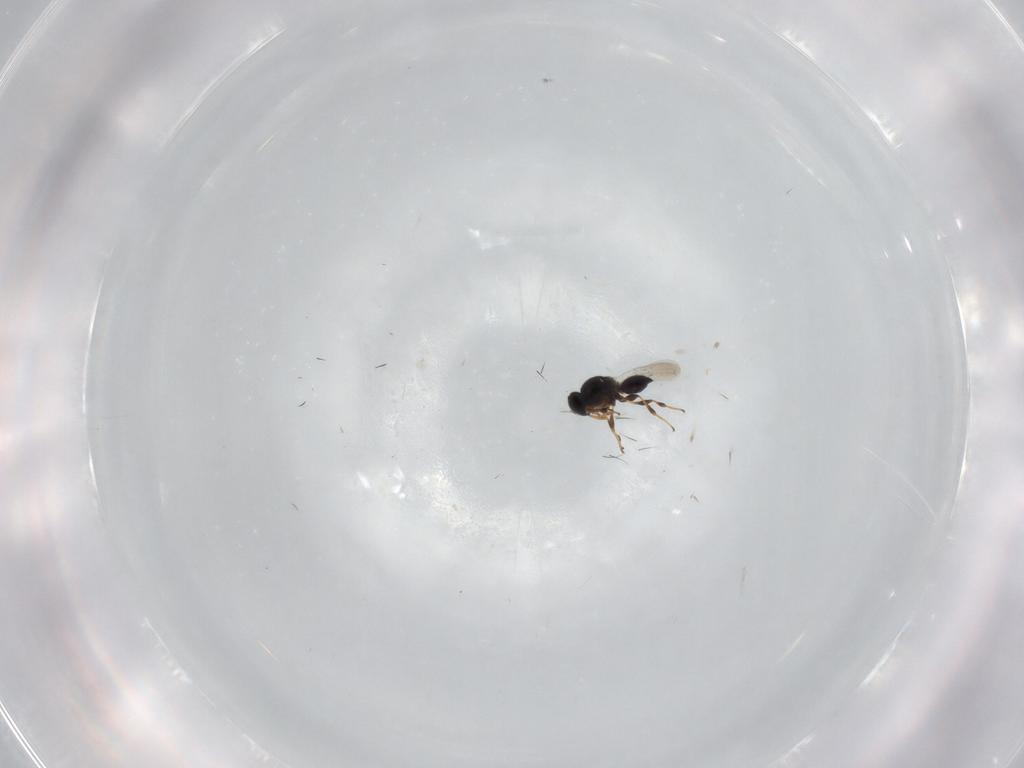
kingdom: Animalia
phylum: Arthropoda
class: Insecta
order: Hymenoptera
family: Platygastridae
